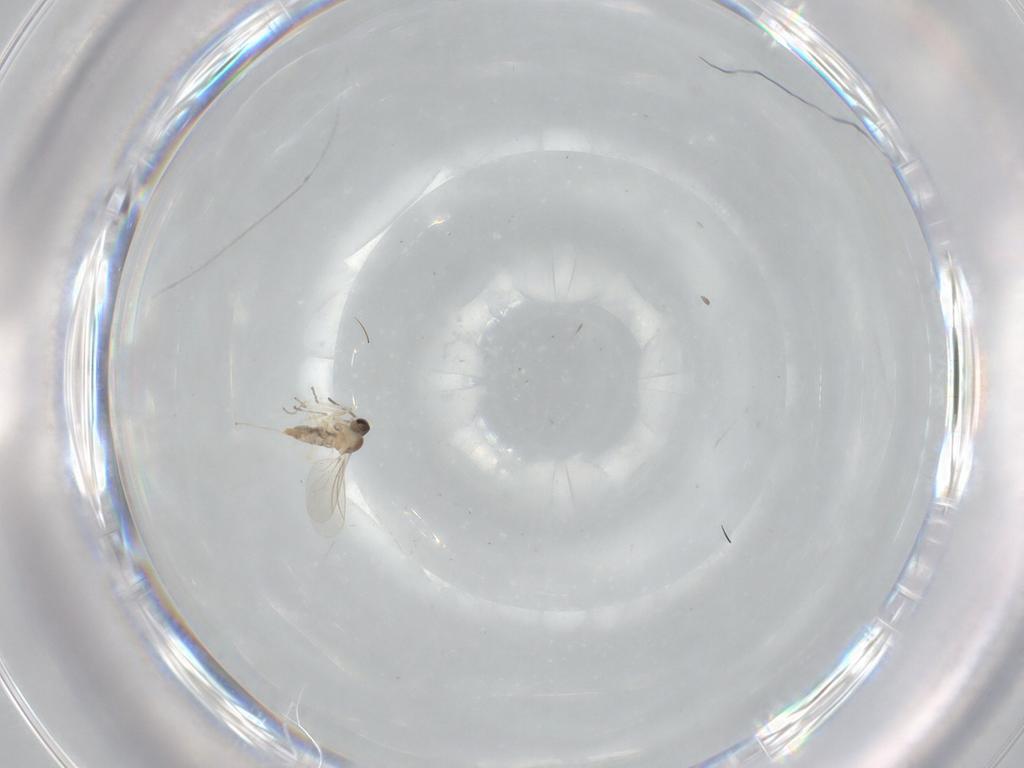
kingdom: Animalia
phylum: Arthropoda
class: Insecta
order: Diptera
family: Cecidomyiidae
